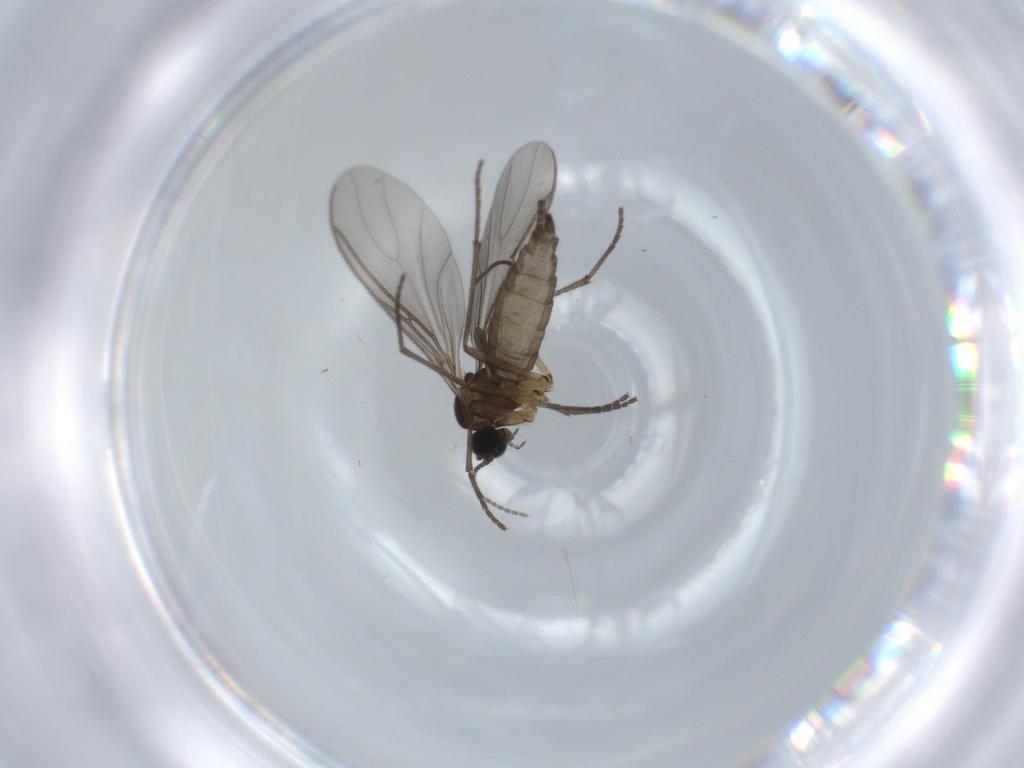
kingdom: Animalia
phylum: Arthropoda
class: Insecta
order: Diptera
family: Sciaridae
